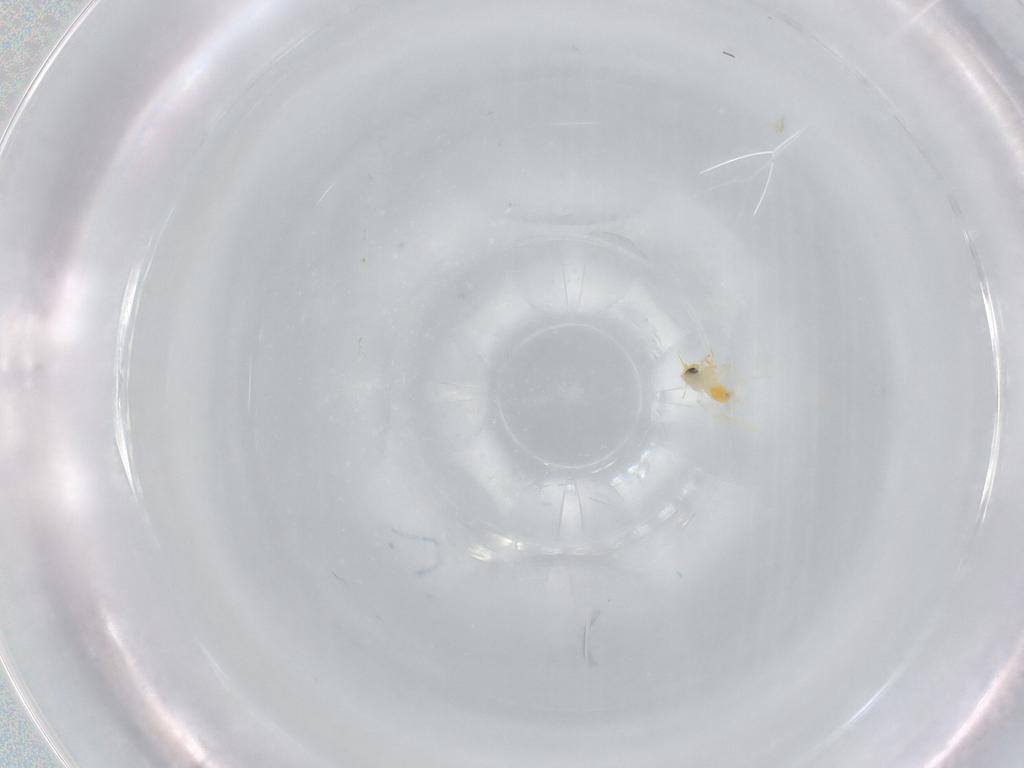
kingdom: Animalia
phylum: Arthropoda
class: Insecta
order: Hemiptera
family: Aleyrodidae
